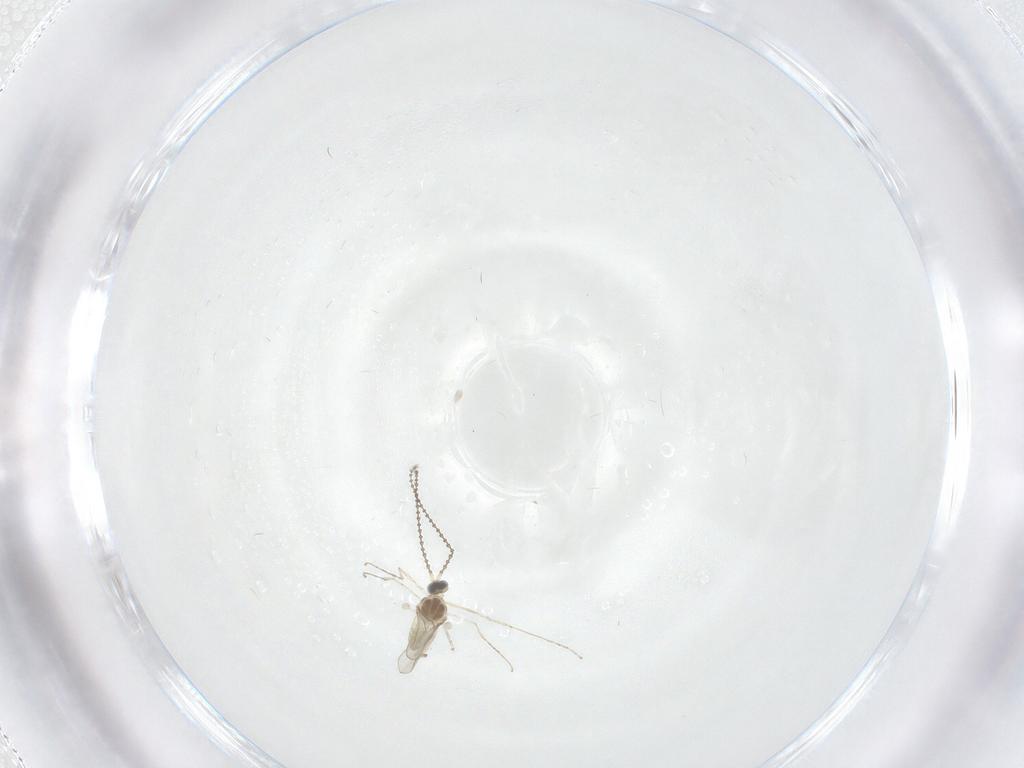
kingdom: Animalia
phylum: Arthropoda
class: Insecta
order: Diptera
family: Cecidomyiidae
